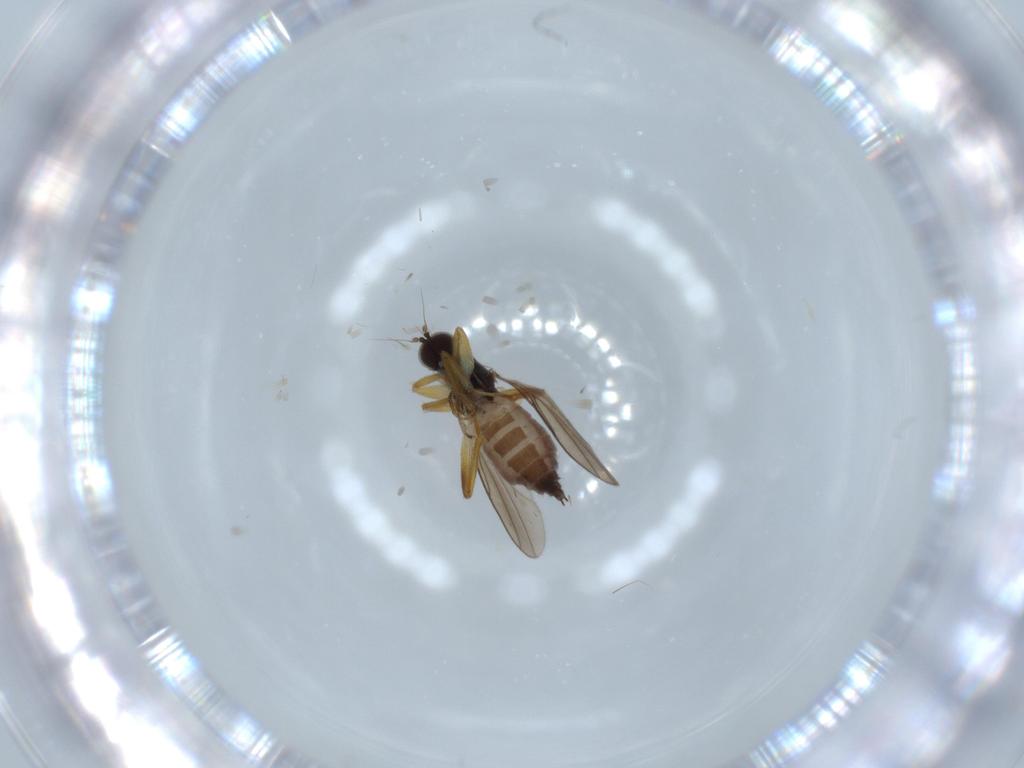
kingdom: Animalia
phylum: Arthropoda
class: Insecta
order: Diptera
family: Hybotidae
